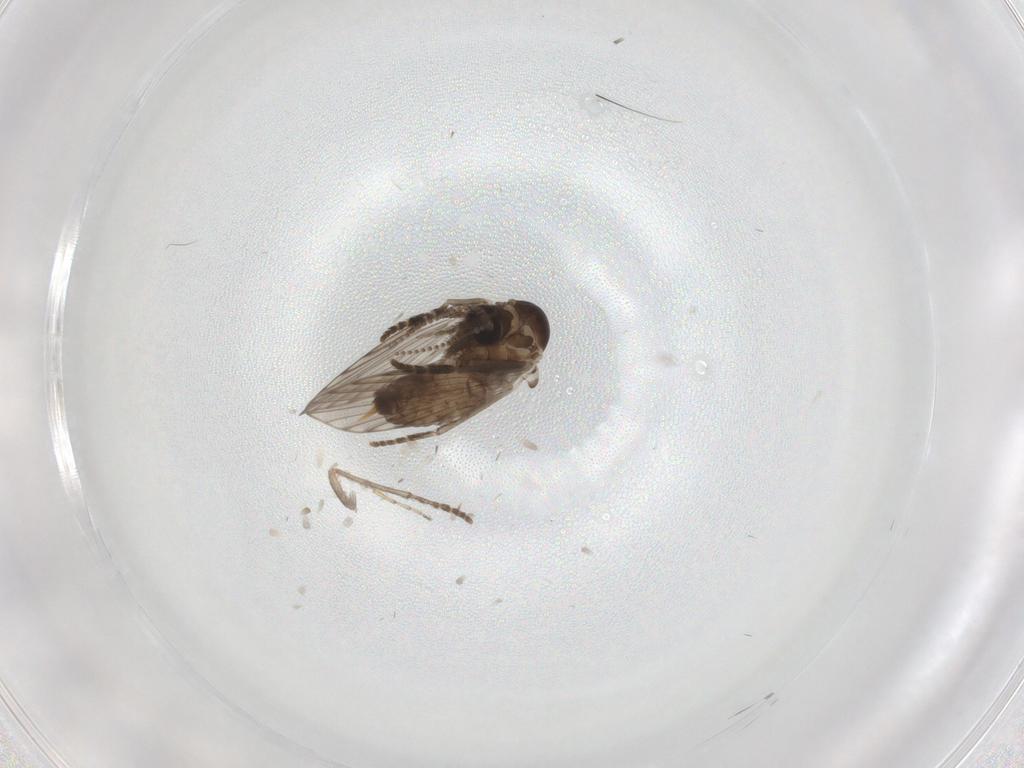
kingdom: Animalia
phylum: Arthropoda
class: Insecta
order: Diptera
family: Psychodidae
